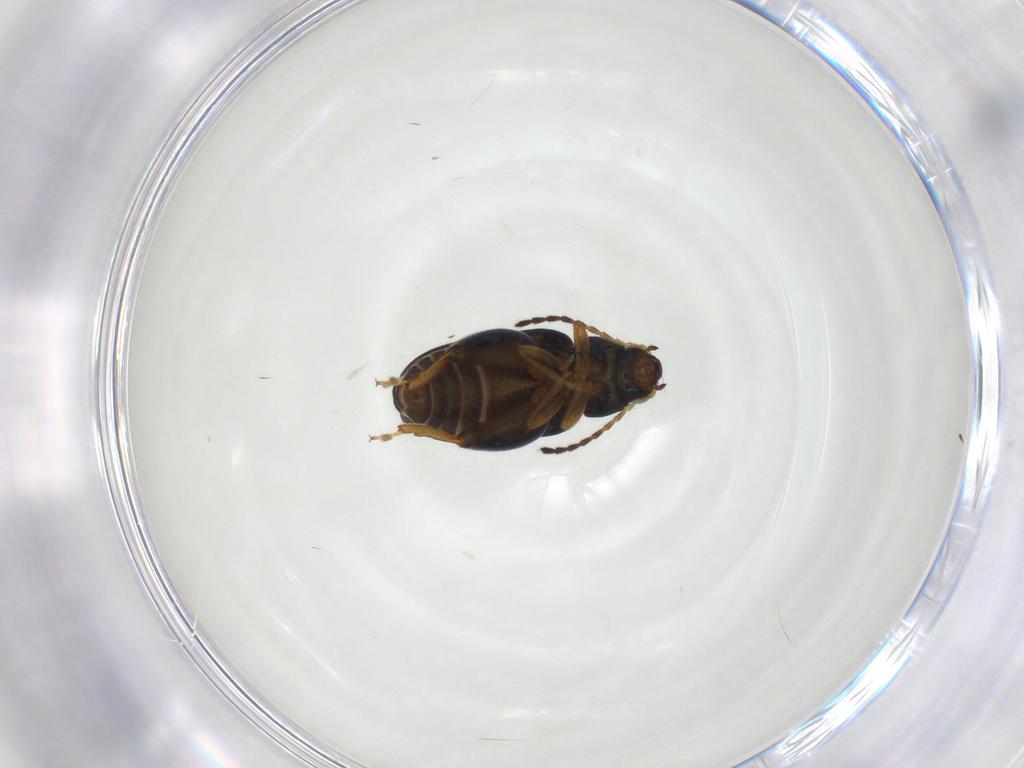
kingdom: Animalia
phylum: Arthropoda
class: Insecta
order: Coleoptera
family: Chrysomelidae
